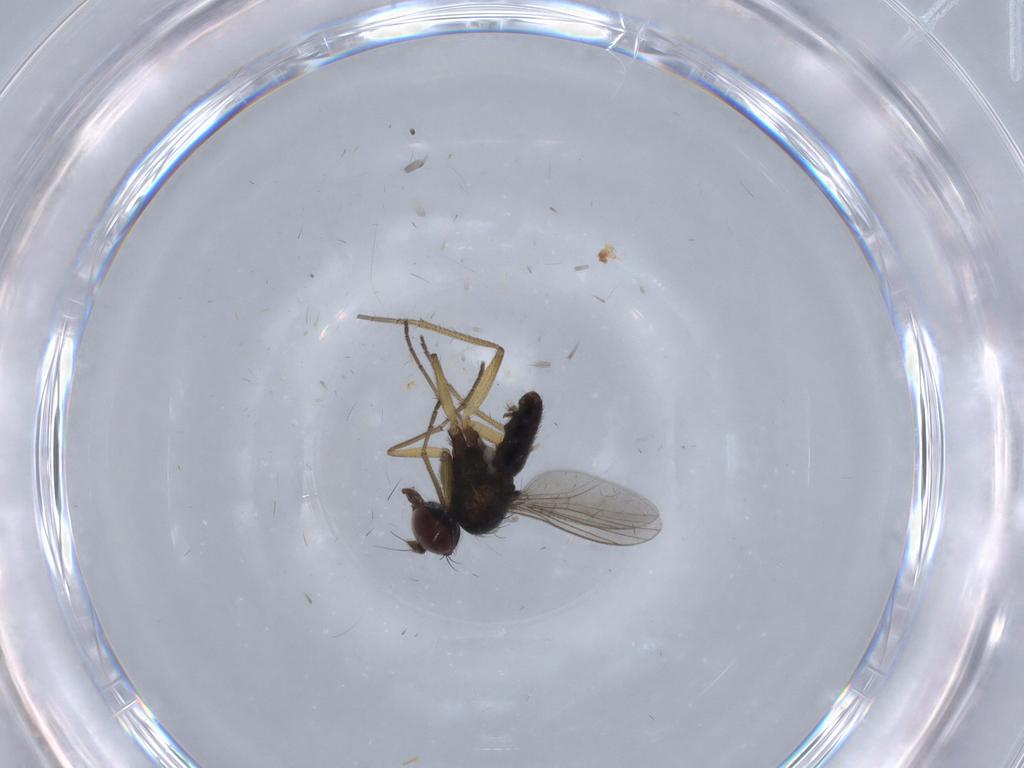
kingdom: Animalia
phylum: Arthropoda
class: Insecta
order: Diptera
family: Dolichopodidae
